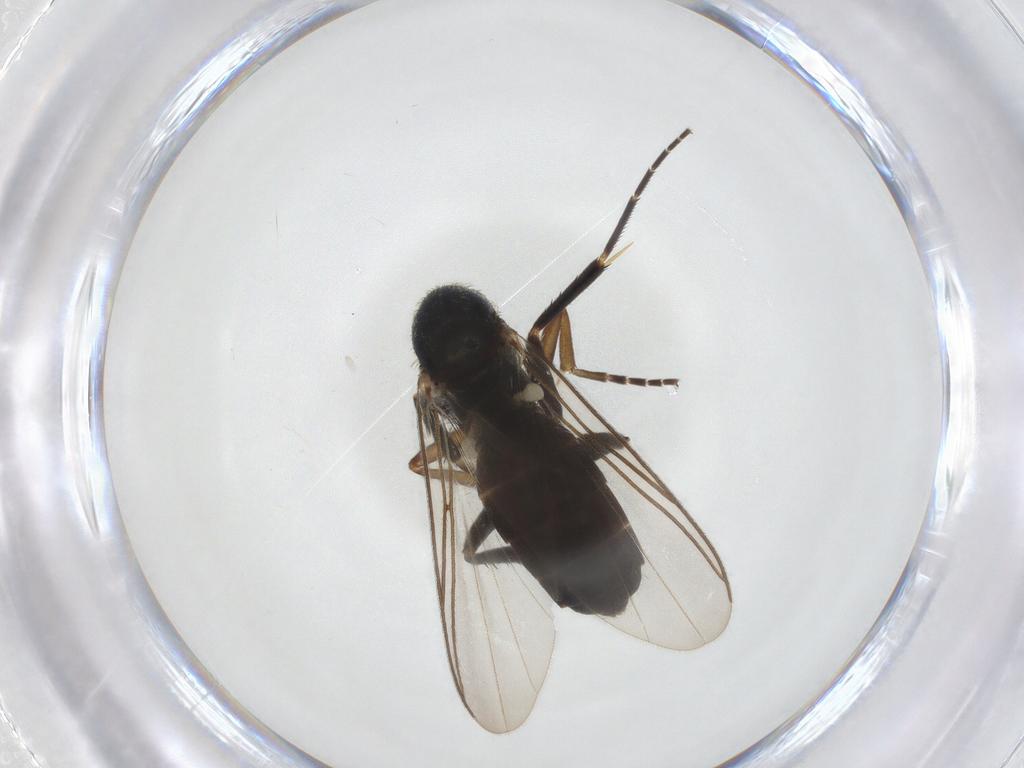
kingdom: Animalia
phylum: Arthropoda
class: Insecta
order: Diptera
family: Mycetophilidae
